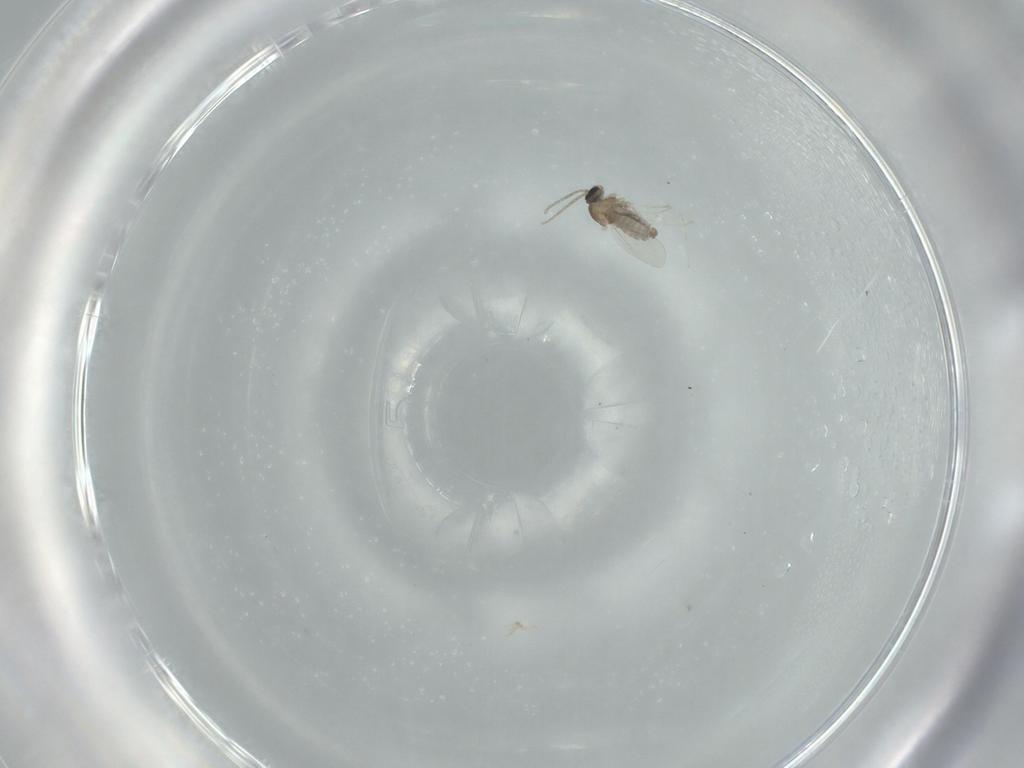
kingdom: Animalia
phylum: Arthropoda
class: Insecta
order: Diptera
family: Cecidomyiidae
